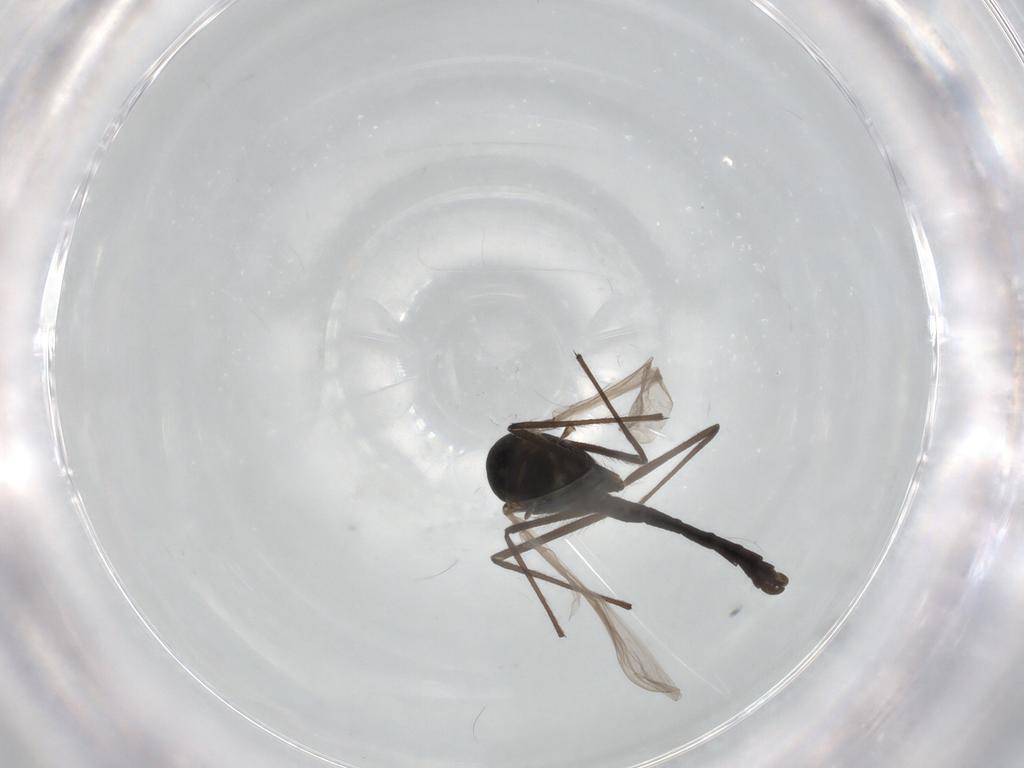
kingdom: Animalia
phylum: Arthropoda
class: Insecta
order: Diptera
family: Chironomidae
